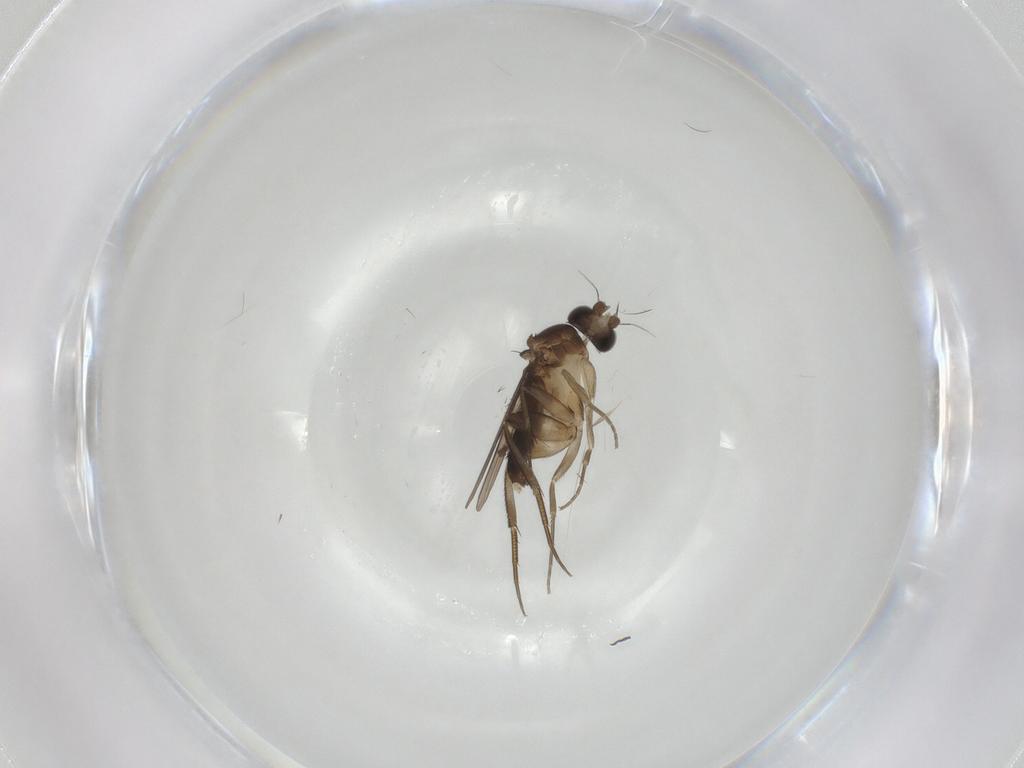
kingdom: Animalia
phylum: Arthropoda
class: Insecta
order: Diptera
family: Phoridae
